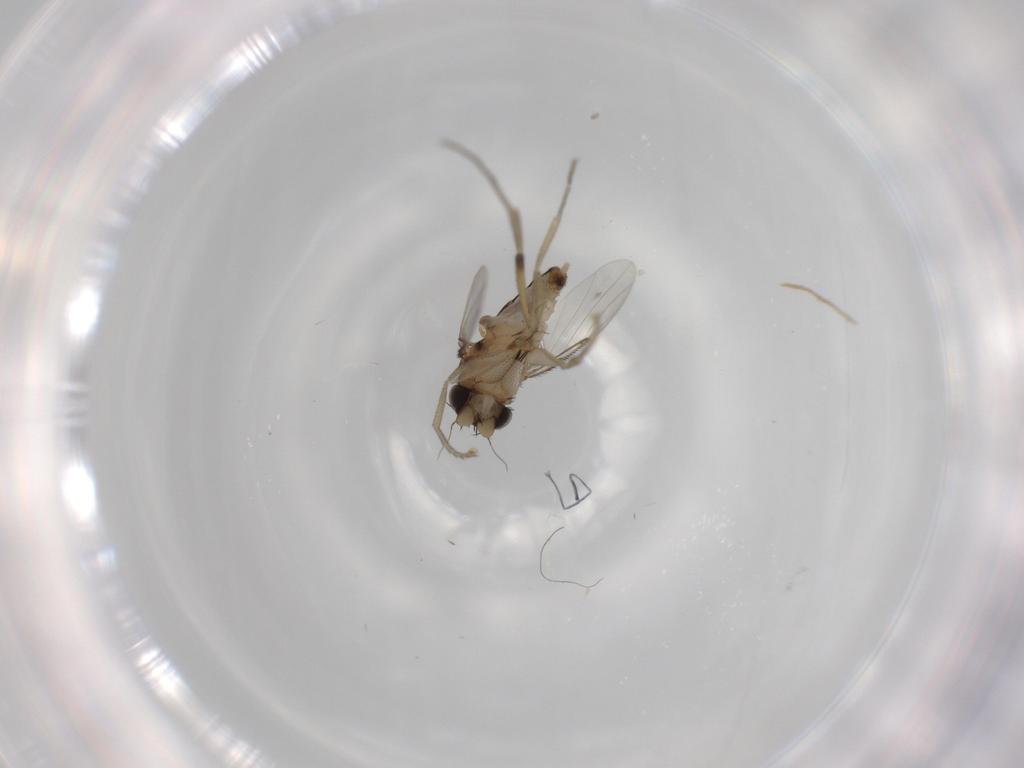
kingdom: Animalia
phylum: Arthropoda
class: Insecta
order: Diptera
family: Phoridae
